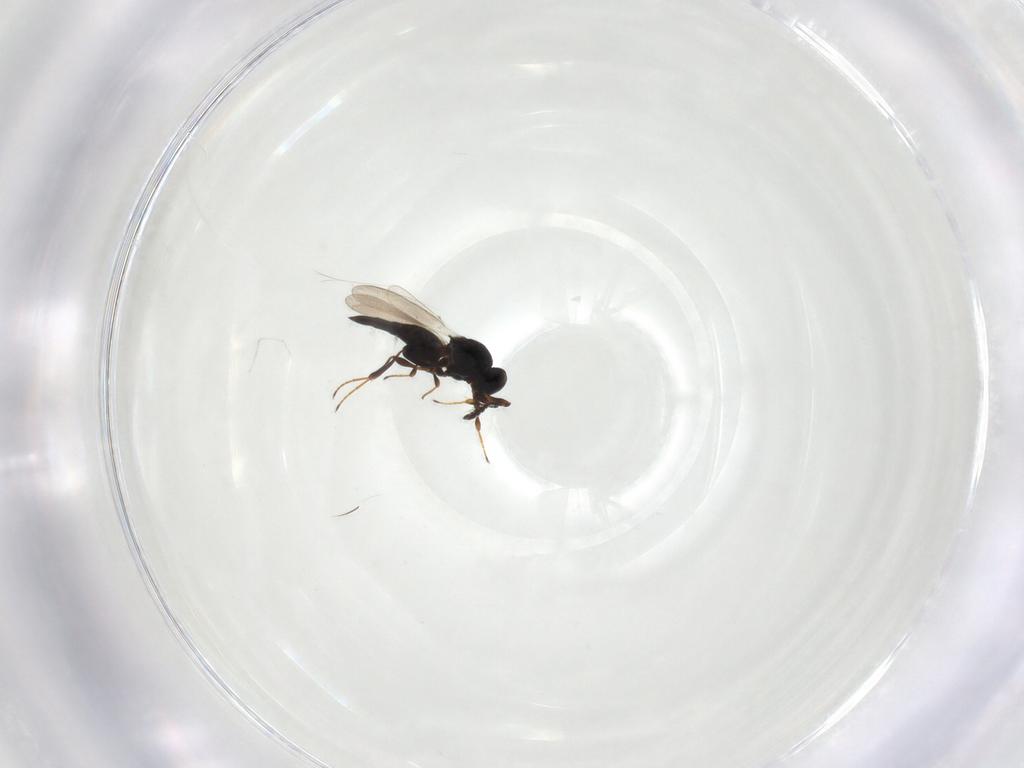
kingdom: Animalia
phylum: Arthropoda
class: Insecta
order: Hymenoptera
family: Platygastridae
